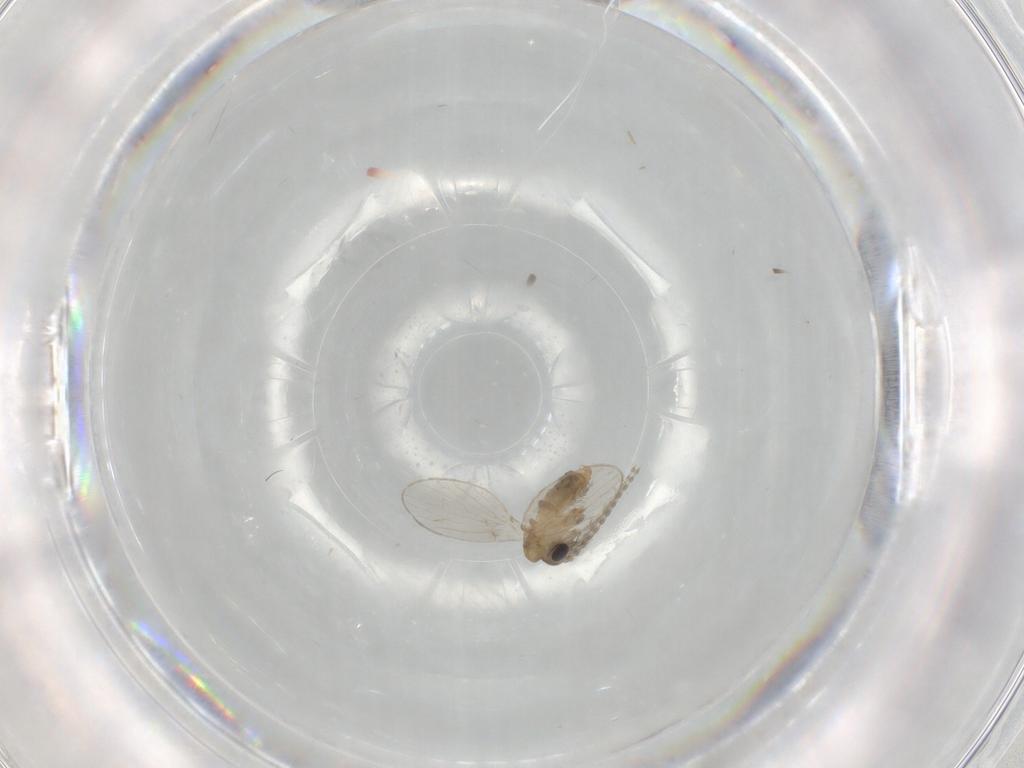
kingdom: Animalia
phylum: Arthropoda
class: Insecta
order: Diptera
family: Psychodidae
